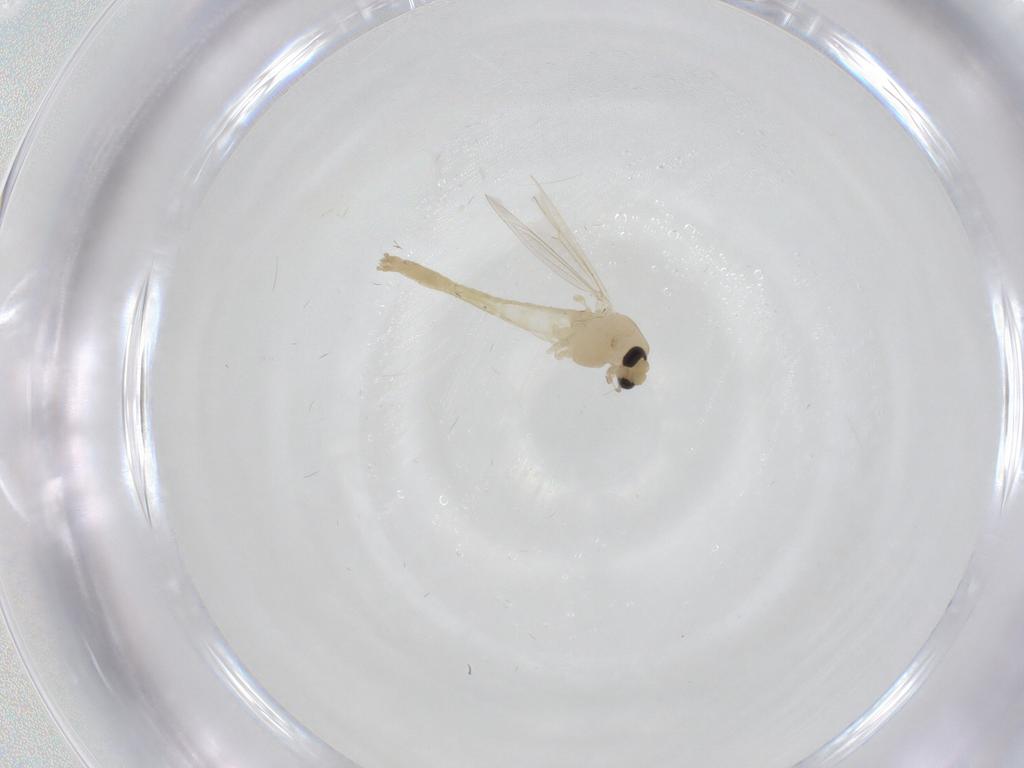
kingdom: Animalia
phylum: Arthropoda
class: Insecta
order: Diptera
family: Chironomidae
